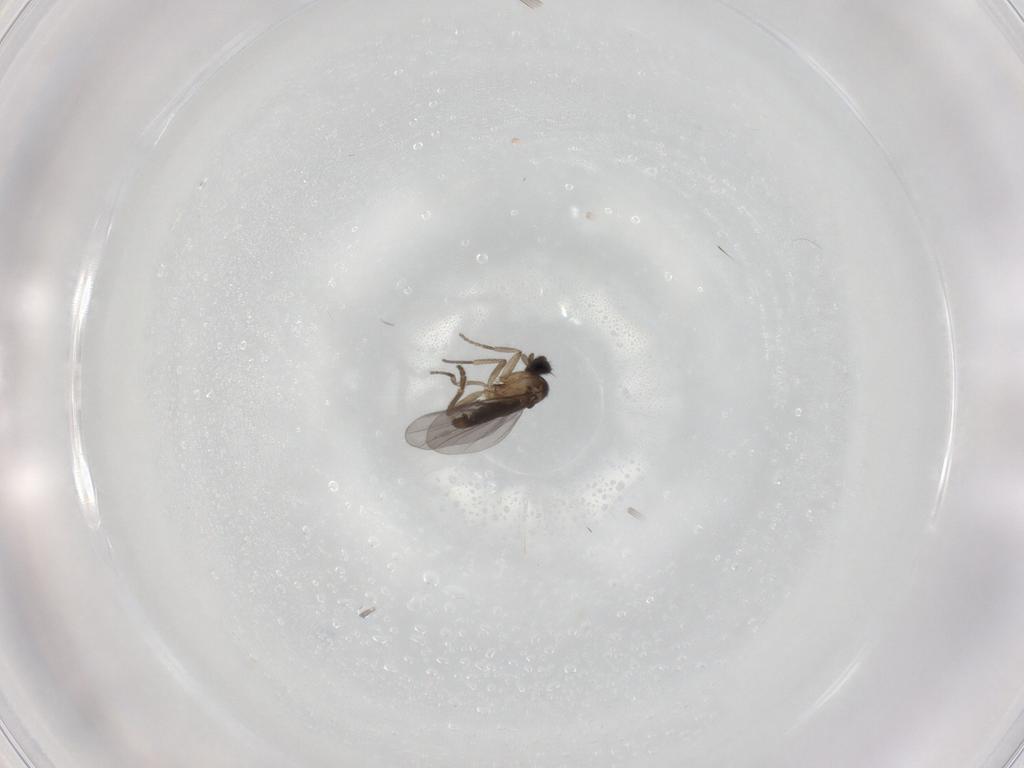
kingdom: Animalia
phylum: Arthropoda
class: Insecta
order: Diptera
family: Phoridae
